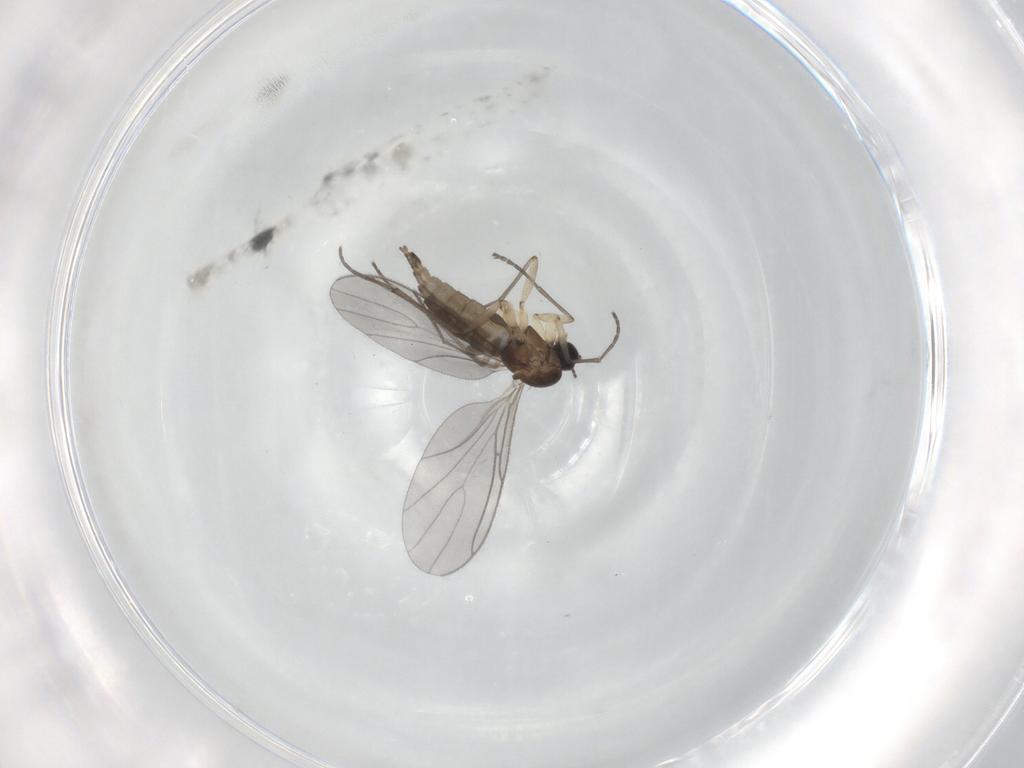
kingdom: Animalia
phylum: Arthropoda
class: Insecta
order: Diptera
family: Sciaridae
